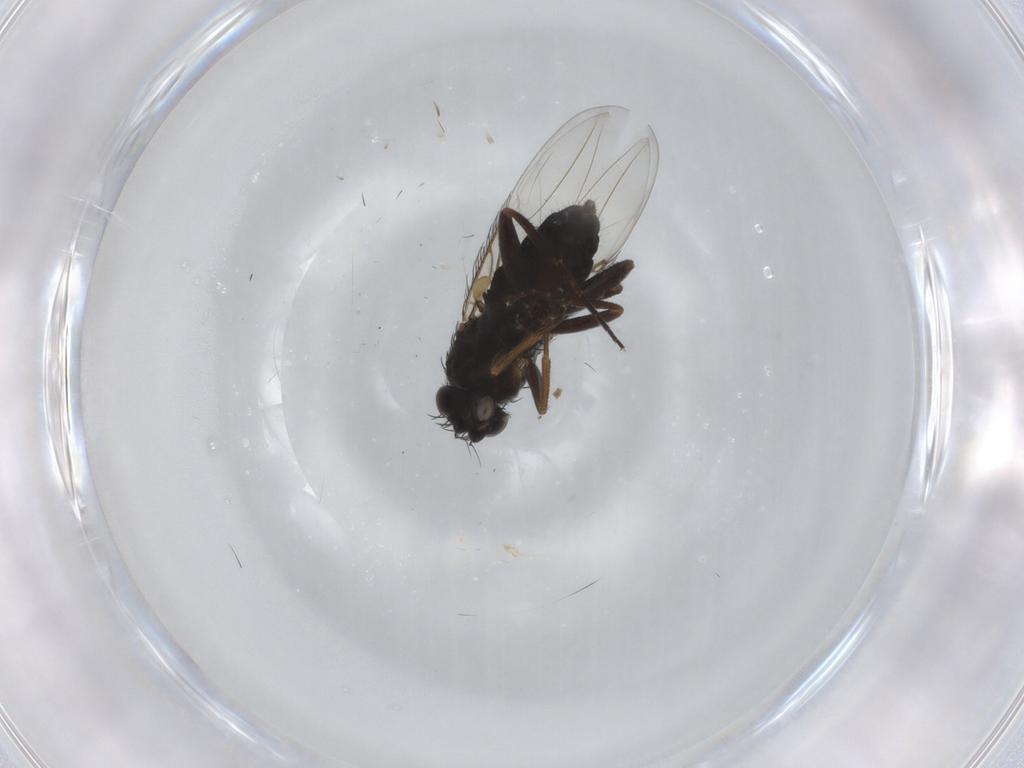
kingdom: Animalia
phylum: Arthropoda
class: Insecta
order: Diptera
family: Phoridae
